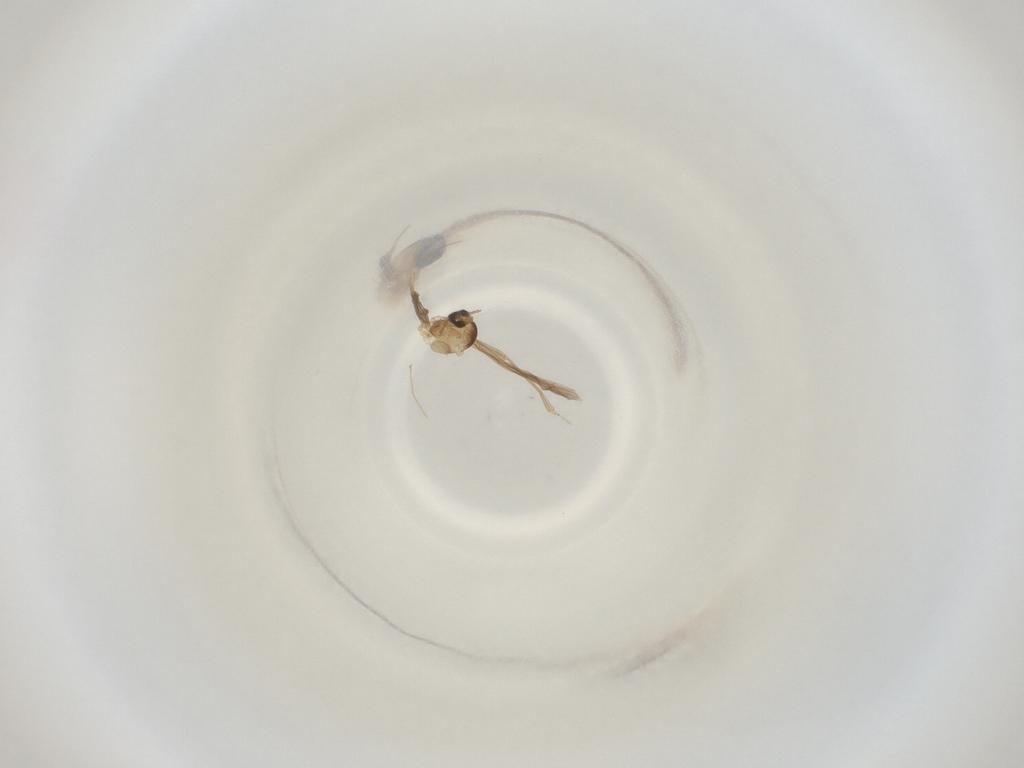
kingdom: Animalia
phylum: Arthropoda
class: Insecta
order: Diptera
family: Cecidomyiidae
